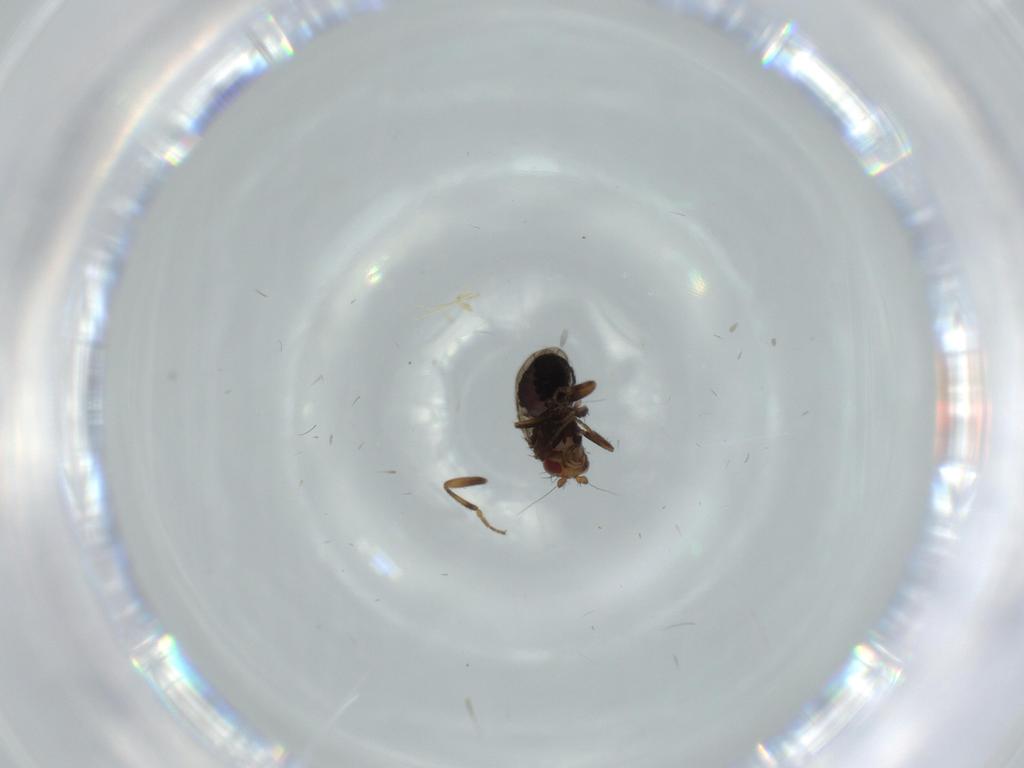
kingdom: Animalia
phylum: Arthropoda
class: Insecta
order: Diptera
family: Sphaeroceridae
